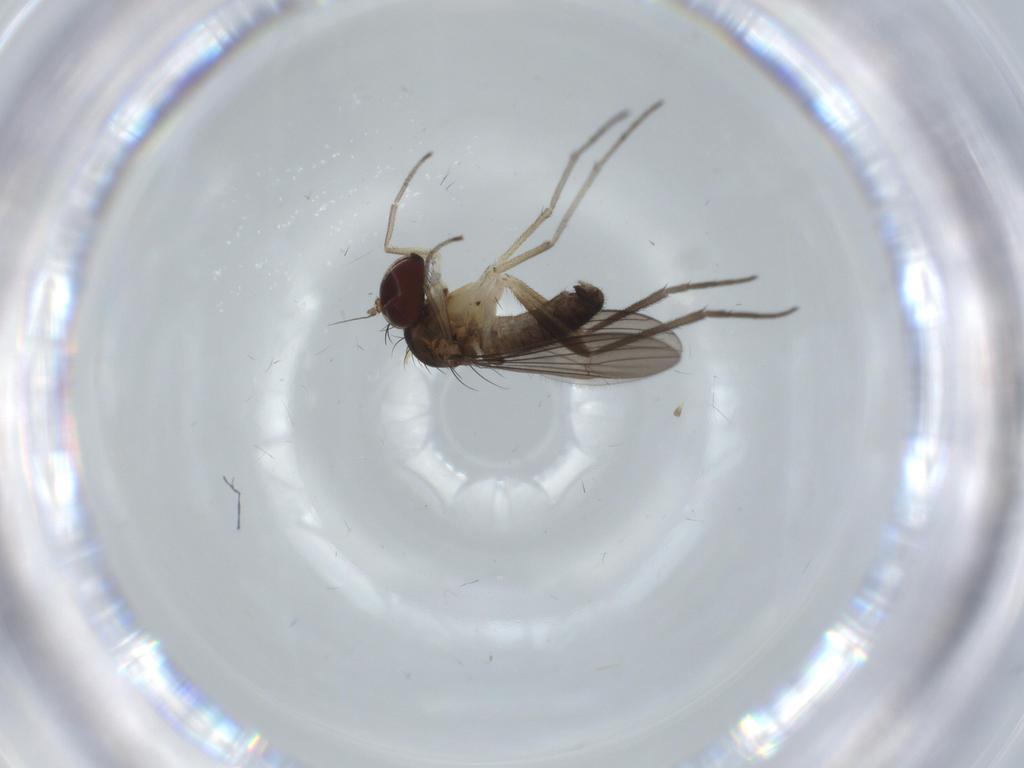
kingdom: Animalia
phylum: Arthropoda
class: Insecta
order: Diptera
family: Dolichopodidae
